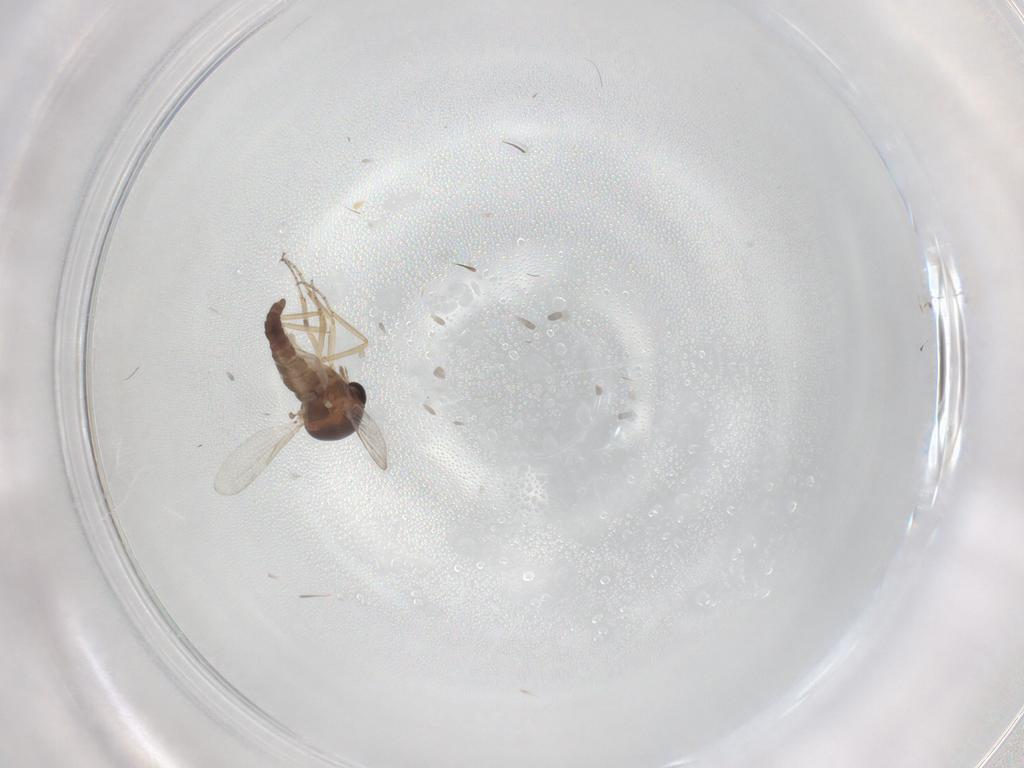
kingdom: Animalia
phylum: Arthropoda
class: Insecta
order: Diptera
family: Ceratopogonidae
